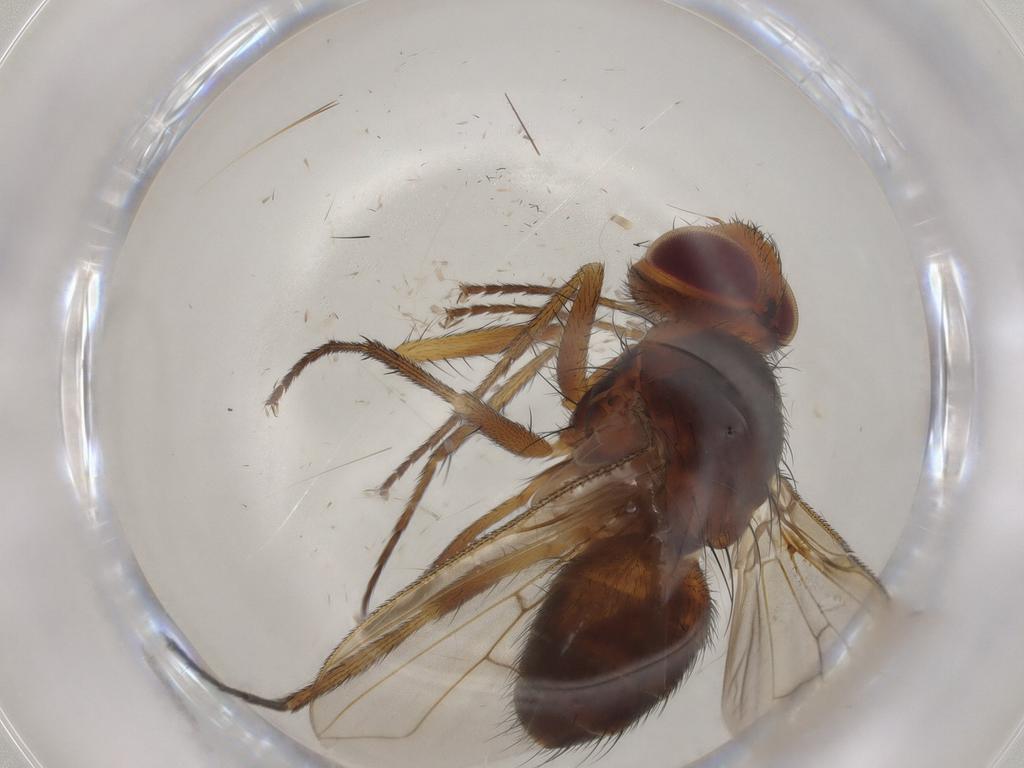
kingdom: Animalia
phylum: Arthropoda
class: Insecta
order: Diptera
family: Tachinidae
